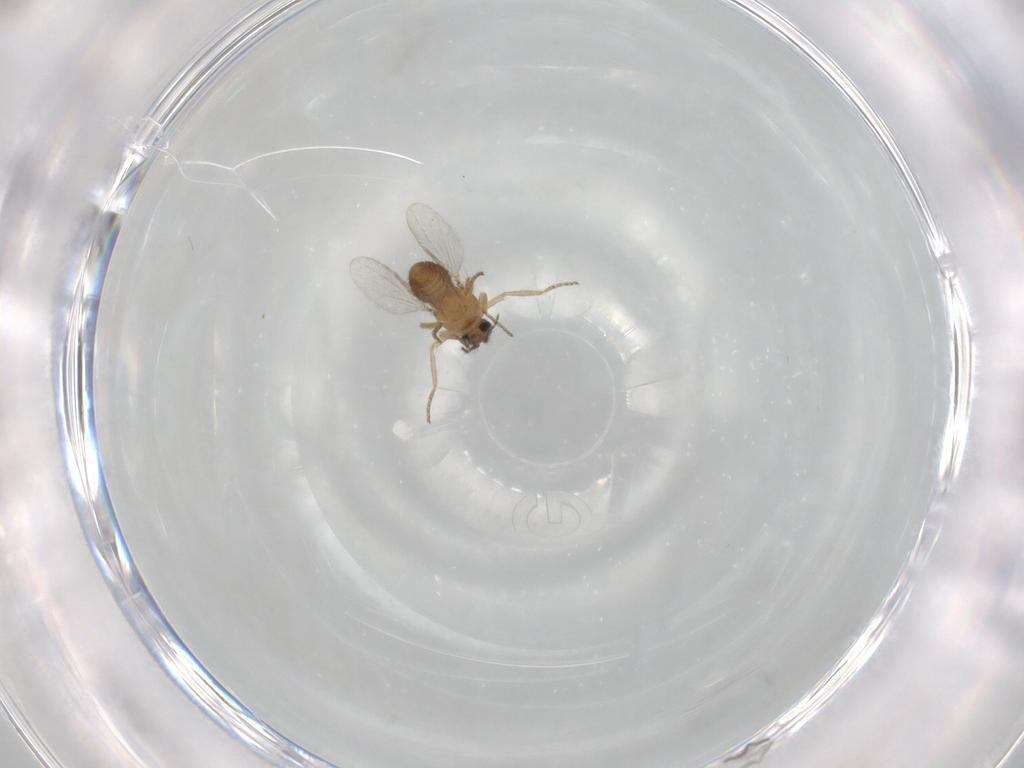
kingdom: Animalia
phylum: Arthropoda
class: Insecta
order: Diptera
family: Ceratopogonidae
